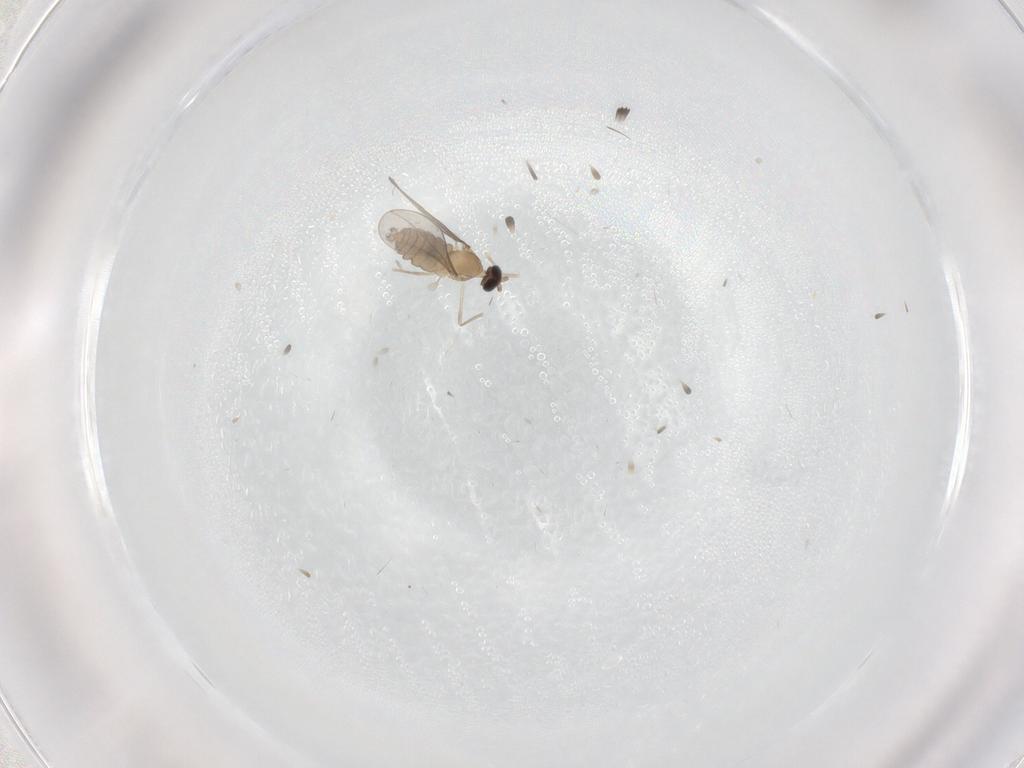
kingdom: Animalia
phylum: Arthropoda
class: Insecta
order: Diptera
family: Cecidomyiidae
